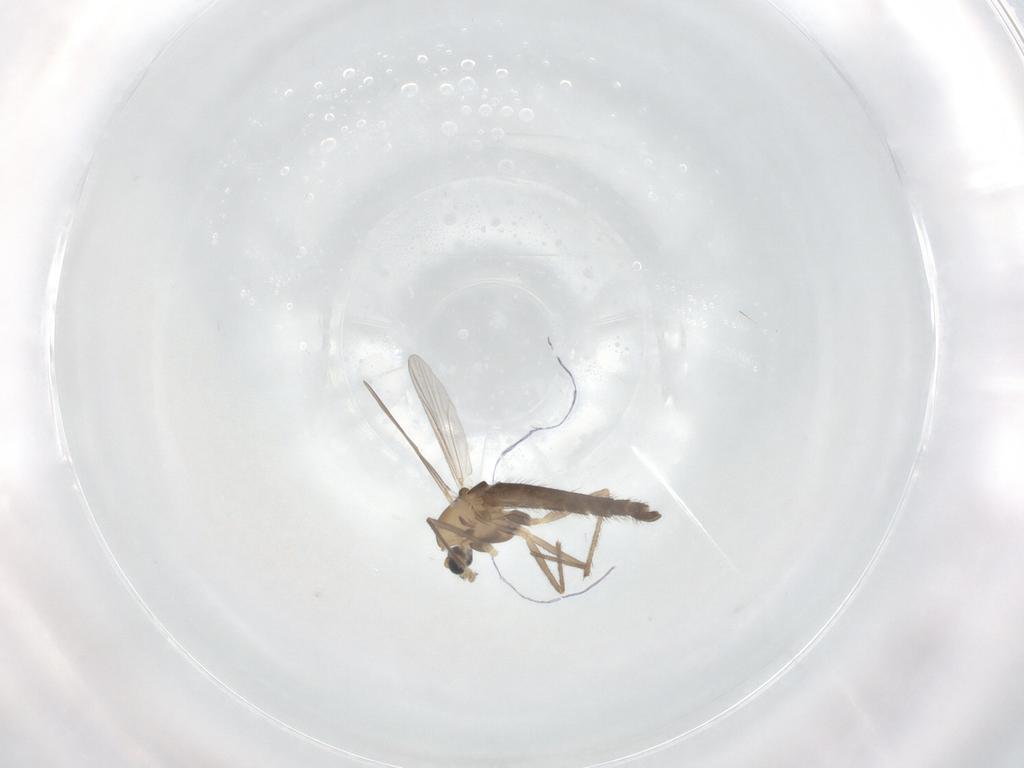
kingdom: Animalia
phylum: Arthropoda
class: Insecta
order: Diptera
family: Chironomidae
